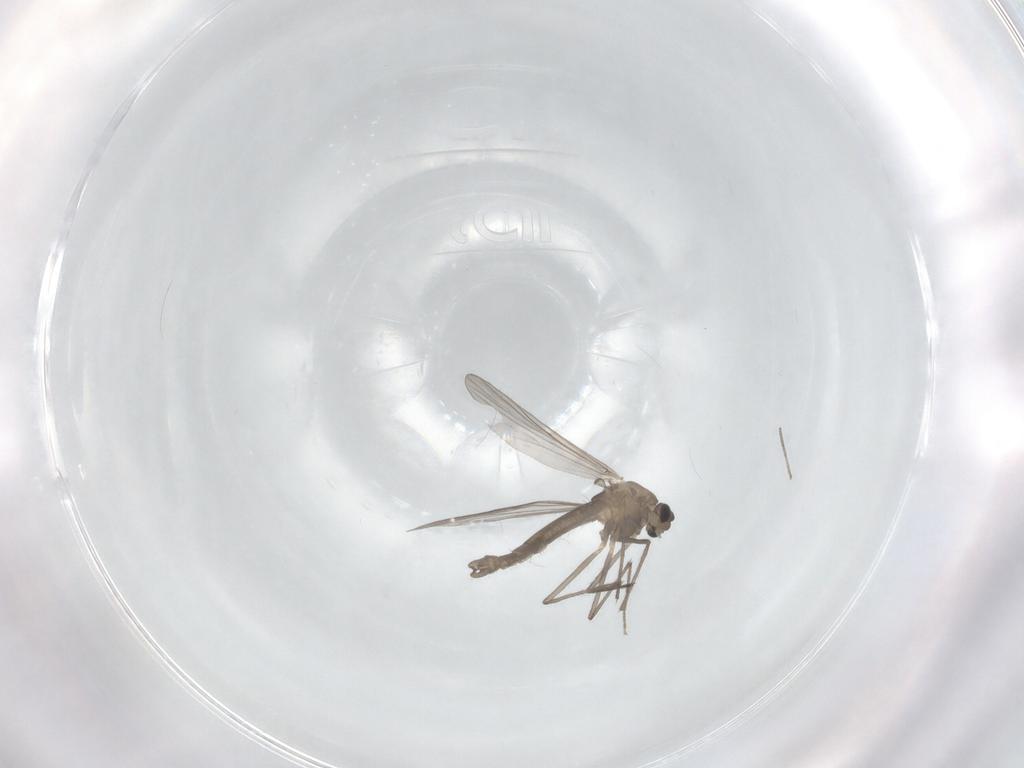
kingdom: Animalia
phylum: Arthropoda
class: Insecta
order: Diptera
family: Chironomidae
